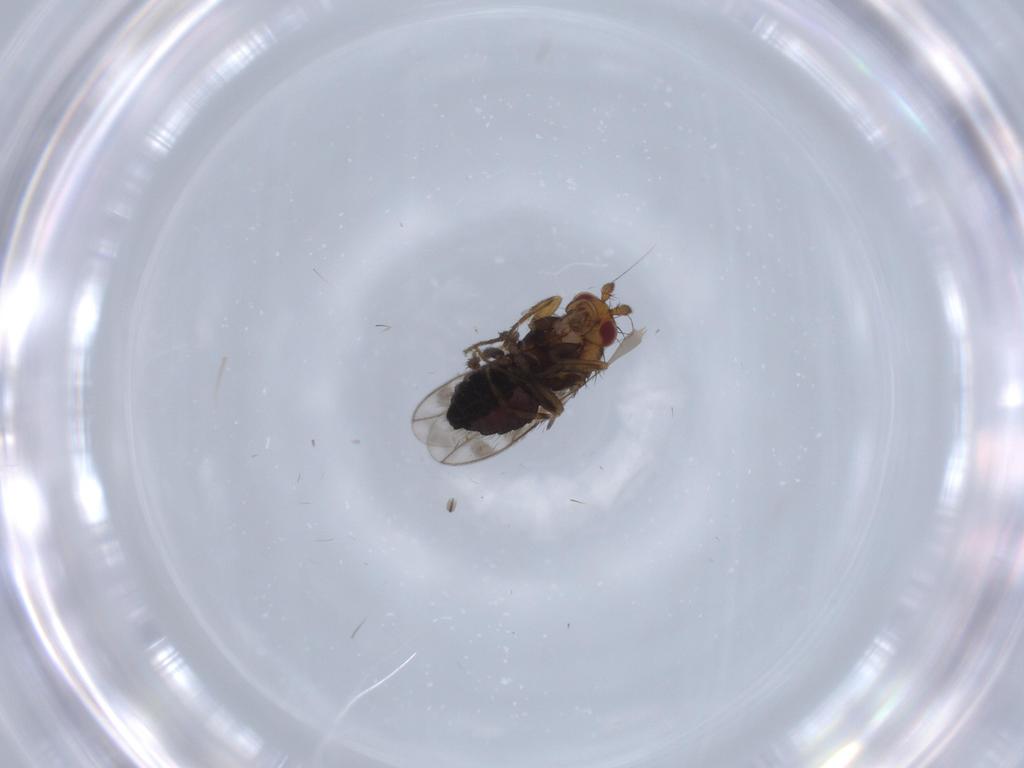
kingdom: Animalia
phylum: Arthropoda
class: Insecta
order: Diptera
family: Sphaeroceridae
